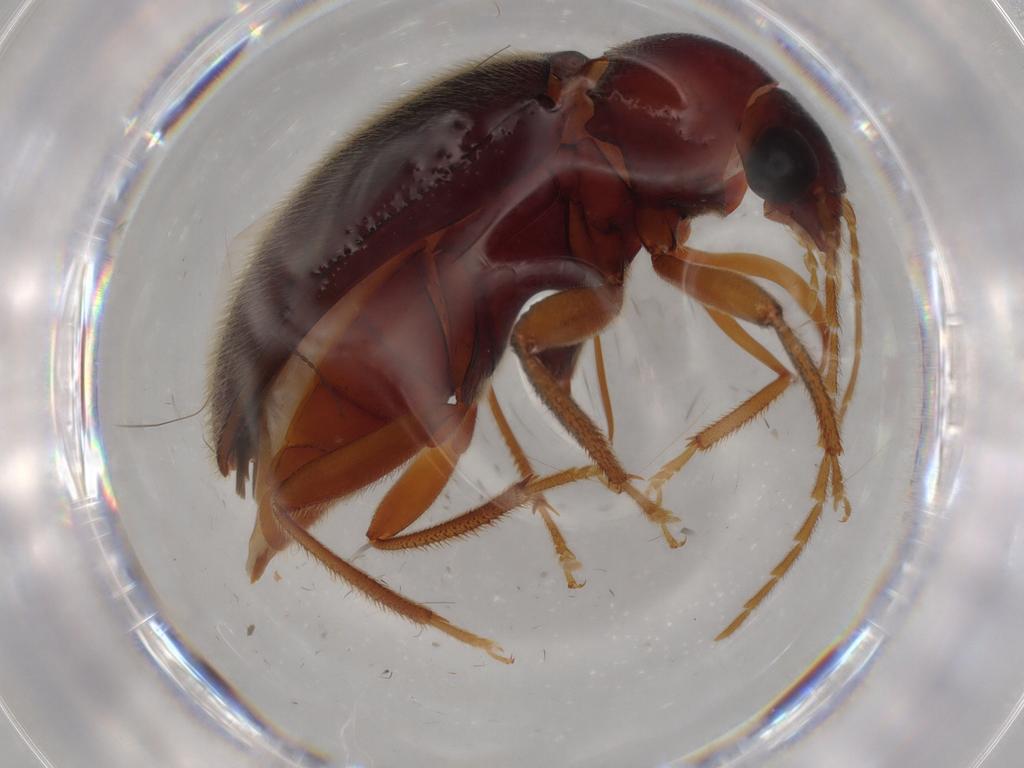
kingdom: Animalia
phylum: Arthropoda
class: Insecta
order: Coleoptera
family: Ptilodactylidae
